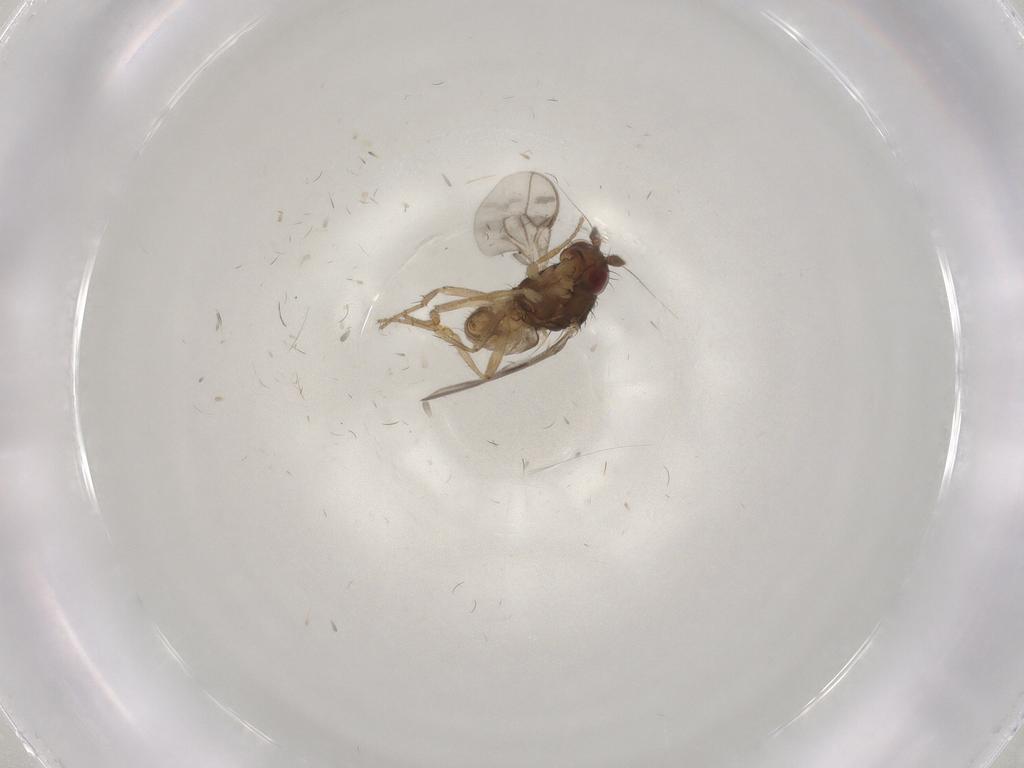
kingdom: Animalia
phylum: Arthropoda
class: Insecta
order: Diptera
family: Sphaeroceridae
